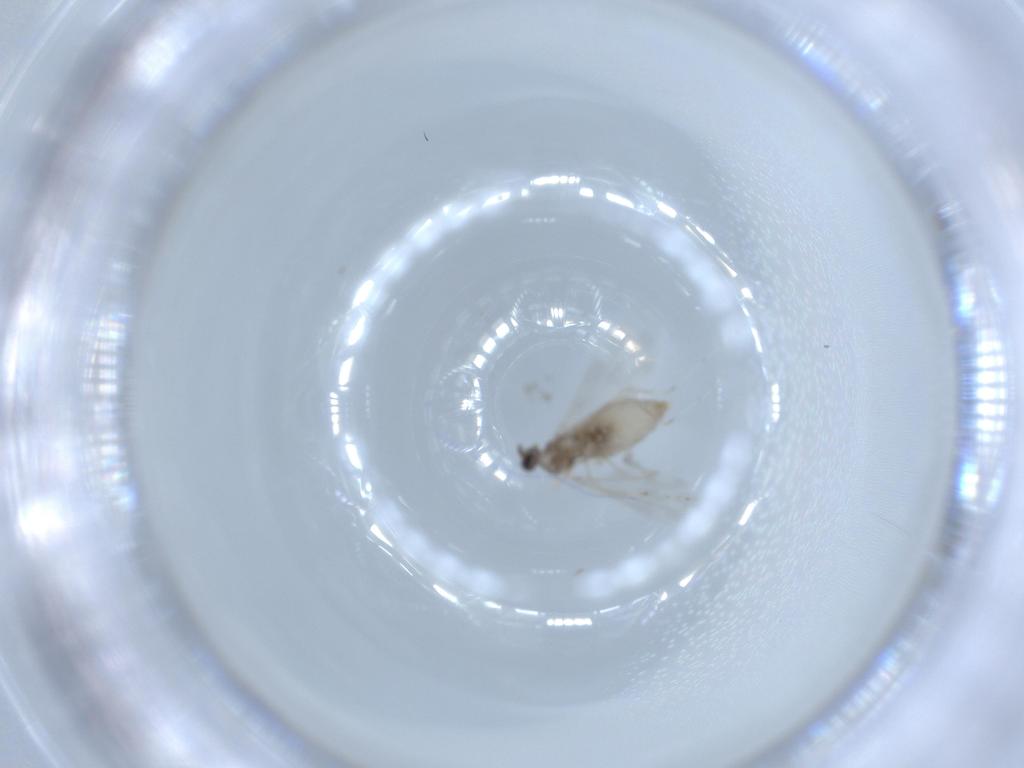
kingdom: Animalia
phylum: Arthropoda
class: Insecta
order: Diptera
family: Cecidomyiidae
